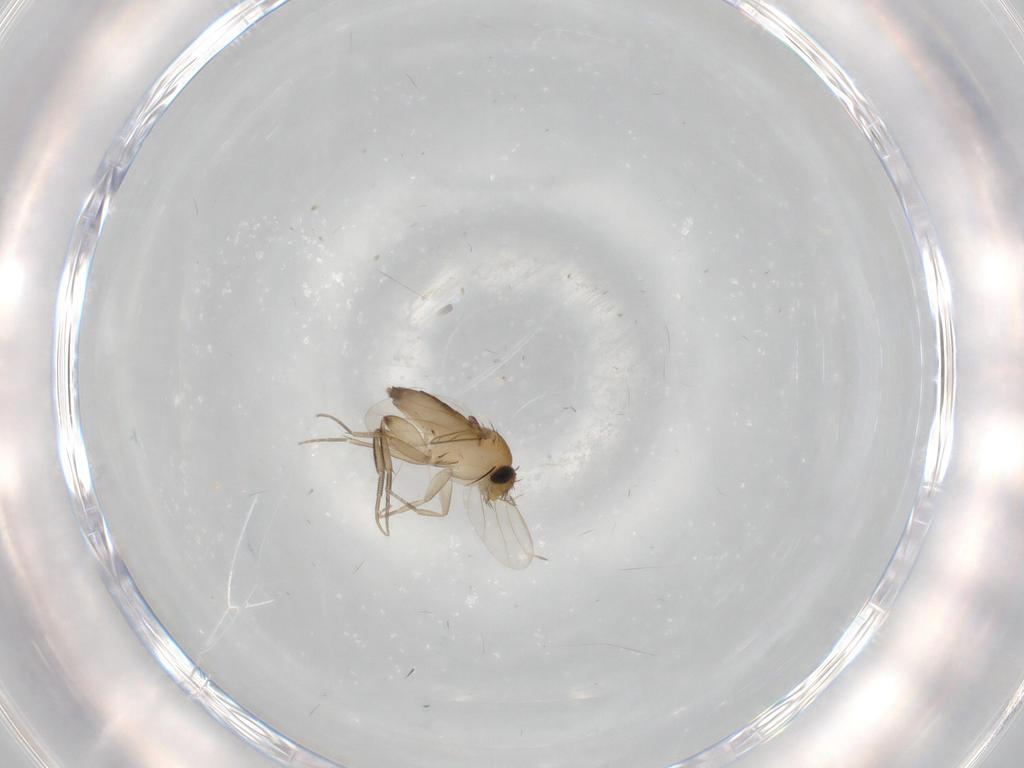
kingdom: Animalia
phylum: Arthropoda
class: Insecta
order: Diptera
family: Phoridae
